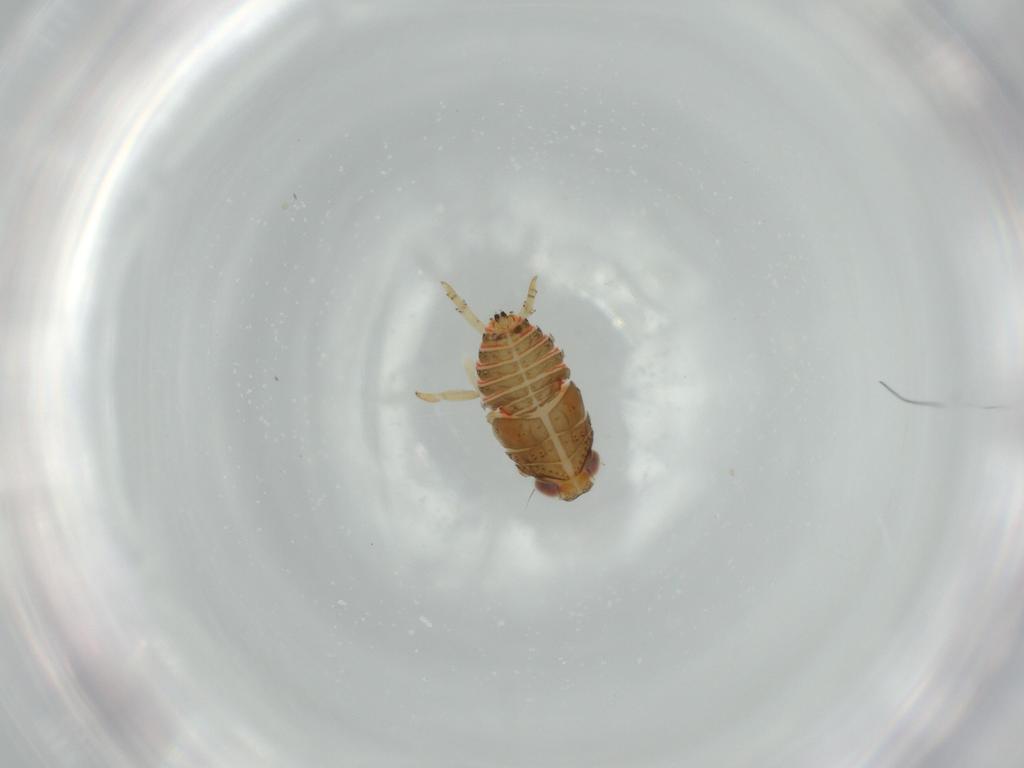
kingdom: Animalia
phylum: Arthropoda
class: Insecta
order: Hemiptera
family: Issidae
